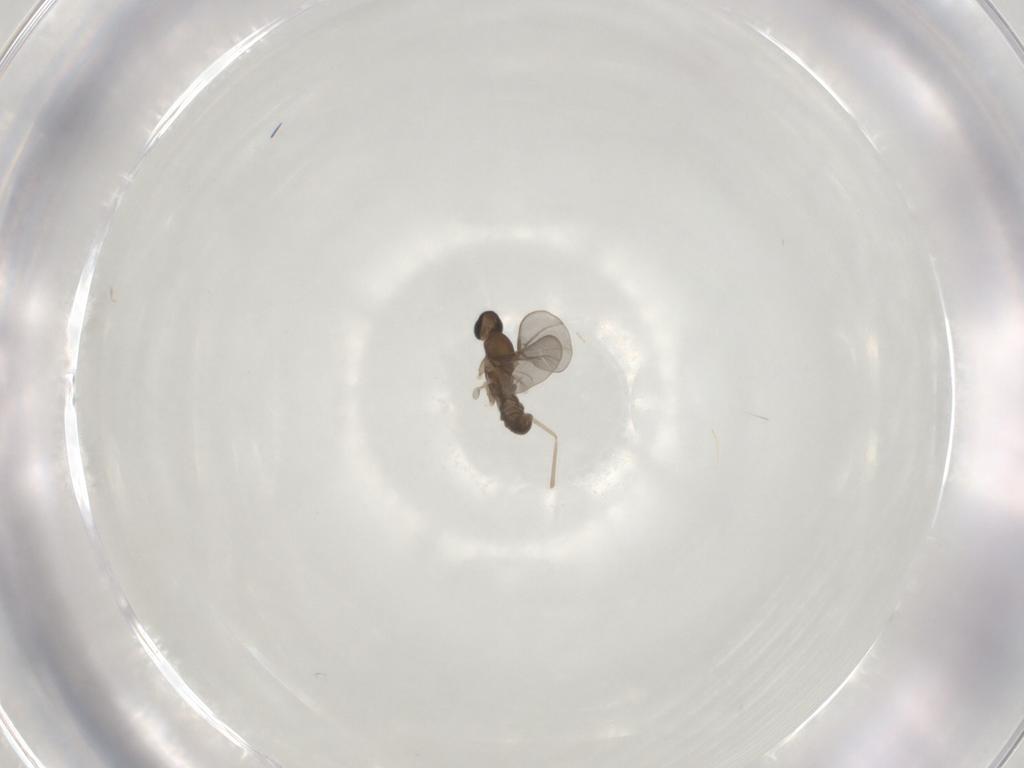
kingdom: Animalia
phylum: Arthropoda
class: Insecta
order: Diptera
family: Cecidomyiidae
